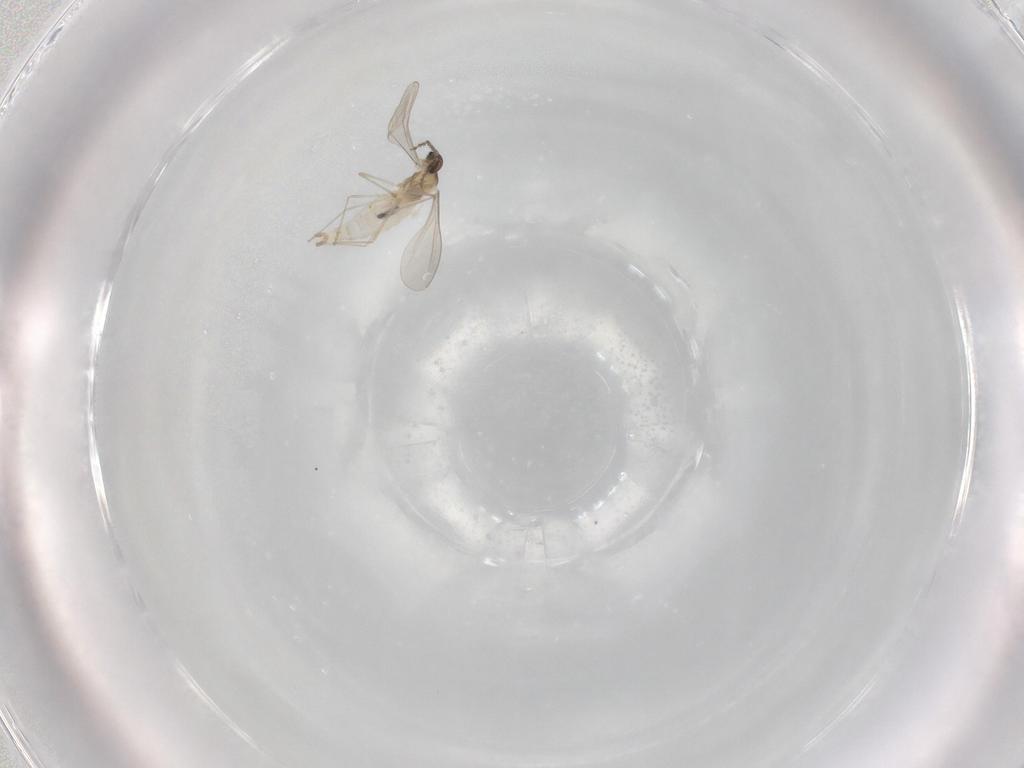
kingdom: Animalia
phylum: Arthropoda
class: Insecta
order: Diptera
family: Cecidomyiidae
